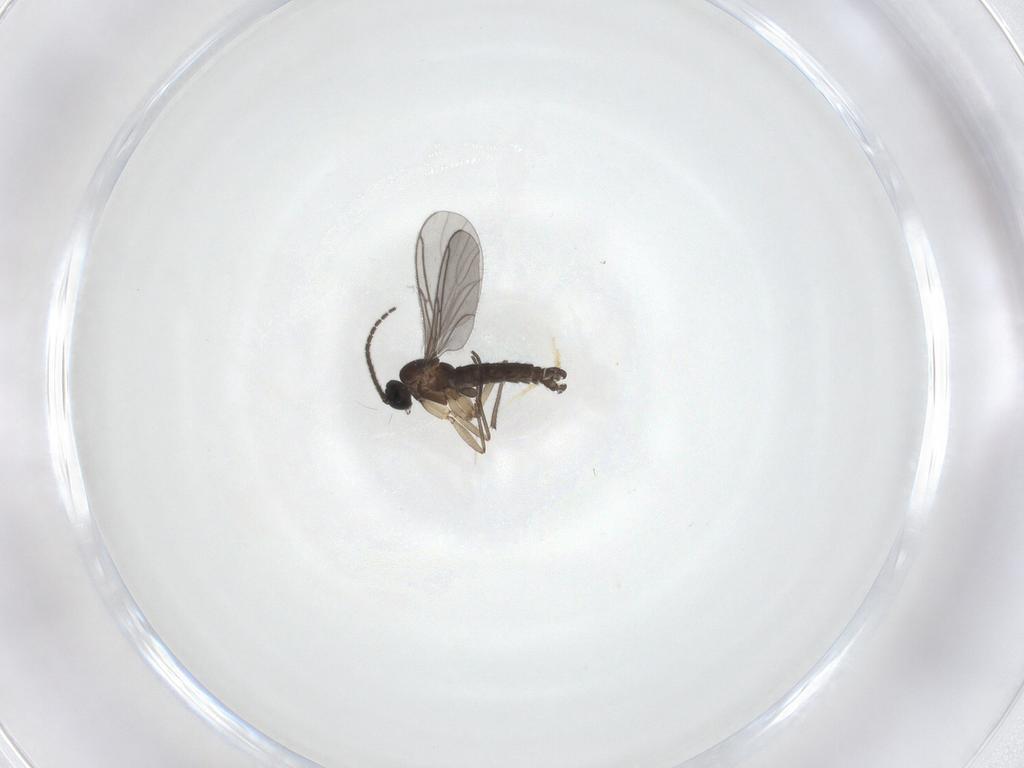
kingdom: Animalia
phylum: Arthropoda
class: Insecta
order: Diptera
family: Sciaridae
